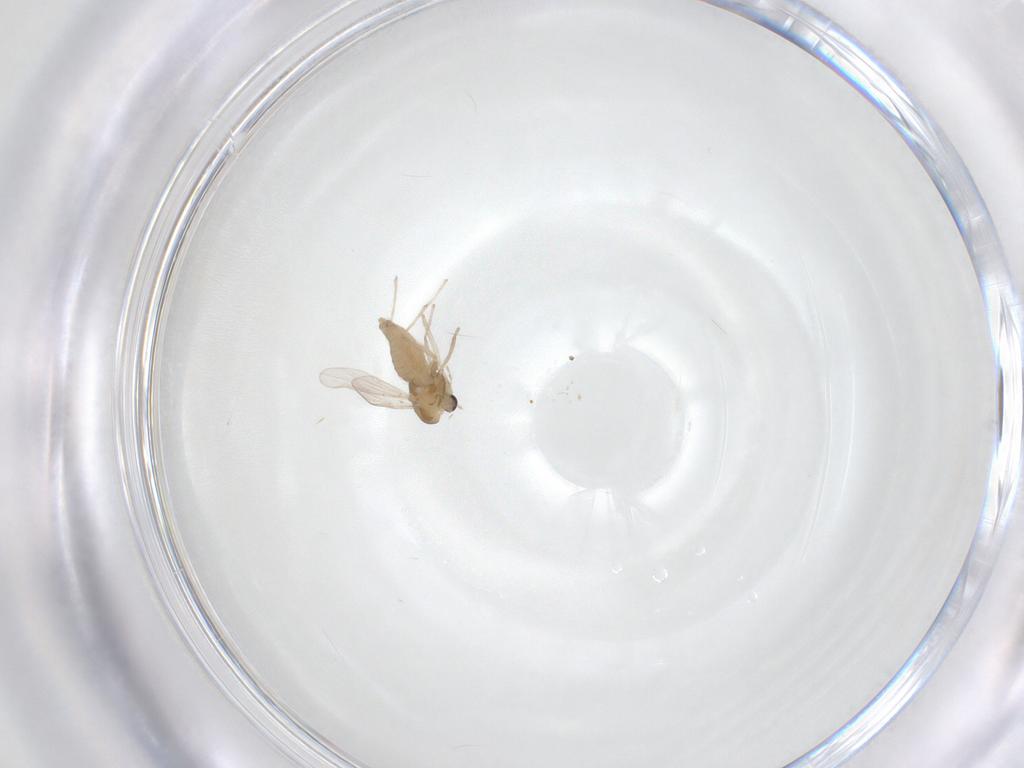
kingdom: Animalia
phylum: Arthropoda
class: Insecta
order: Diptera
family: Chironomidae
